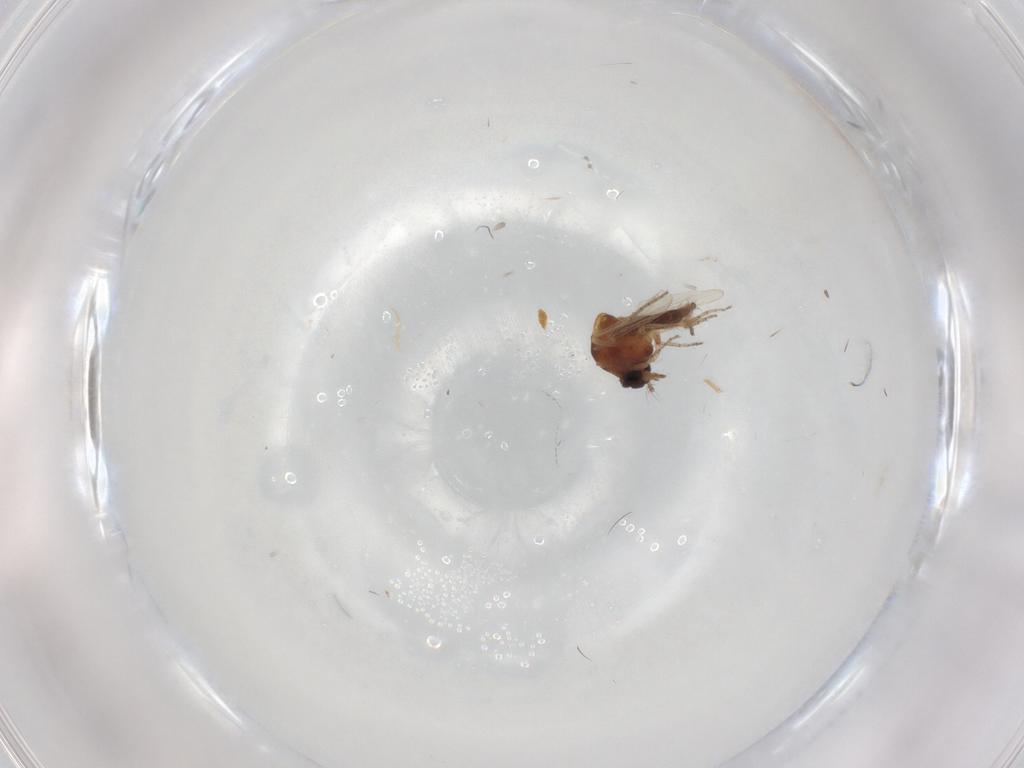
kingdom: Animalia
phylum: Arthropoda
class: Insecta
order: Diptera
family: Ceratopogonidae
